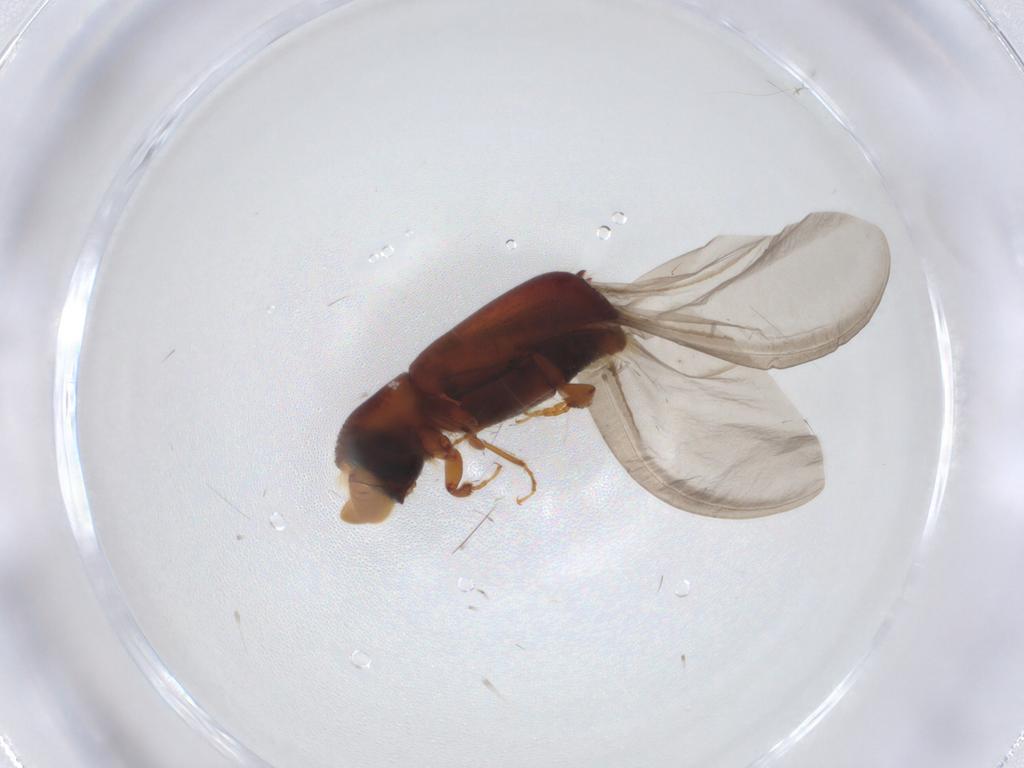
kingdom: Animalia
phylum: Arthropoda
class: Insecta
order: Coleoptera
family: Curculionidae
